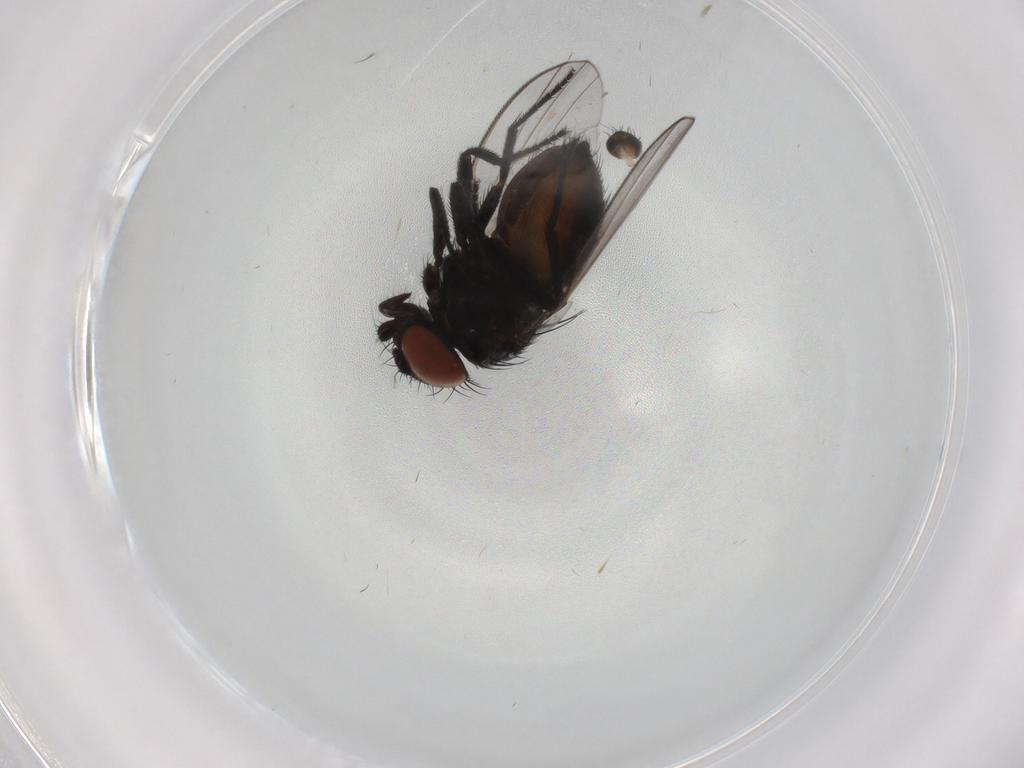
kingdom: Animalia
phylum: Arthropoda
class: Insecta
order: Diptera
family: Milichiidae
